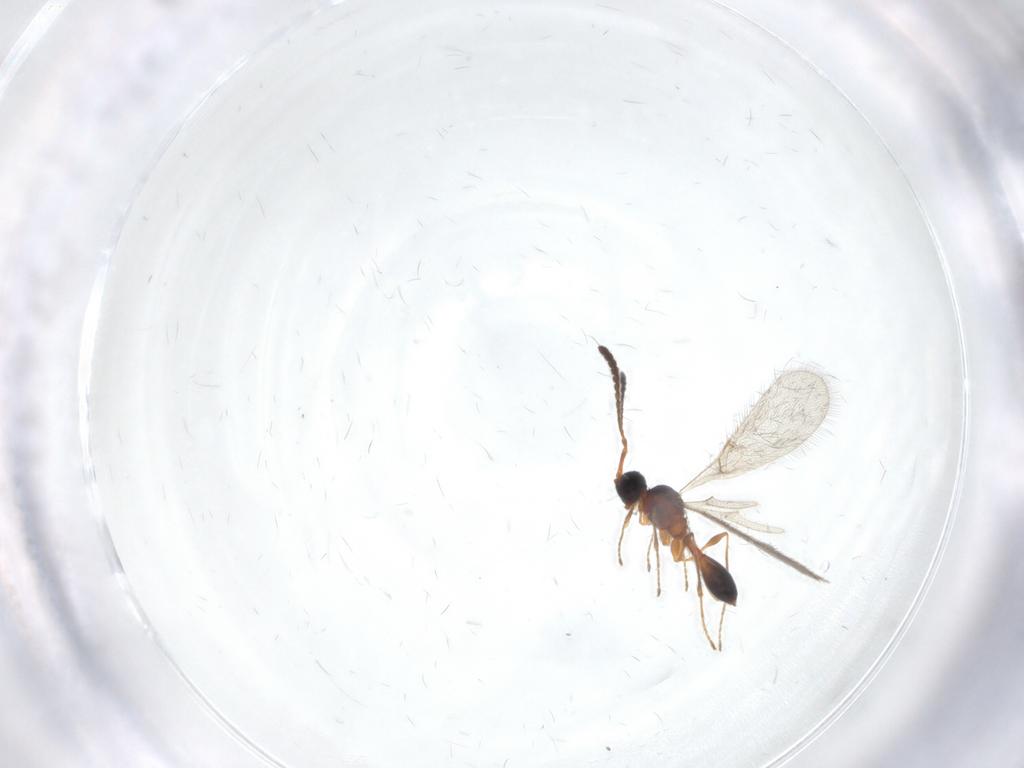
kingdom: Animalia
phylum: Arthropoda
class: Insecta
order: Hymenoptera
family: Diapriidae
